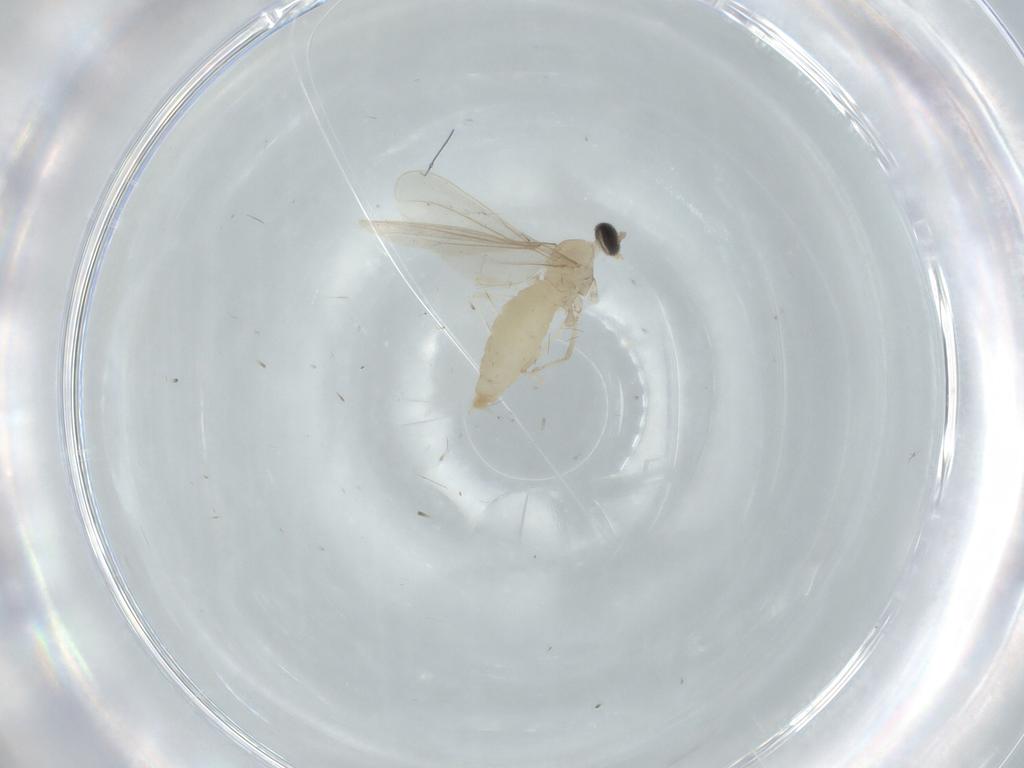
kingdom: Animalia
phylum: Arthropoda
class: Insecta
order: Diptera
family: Cecidomyiidae
